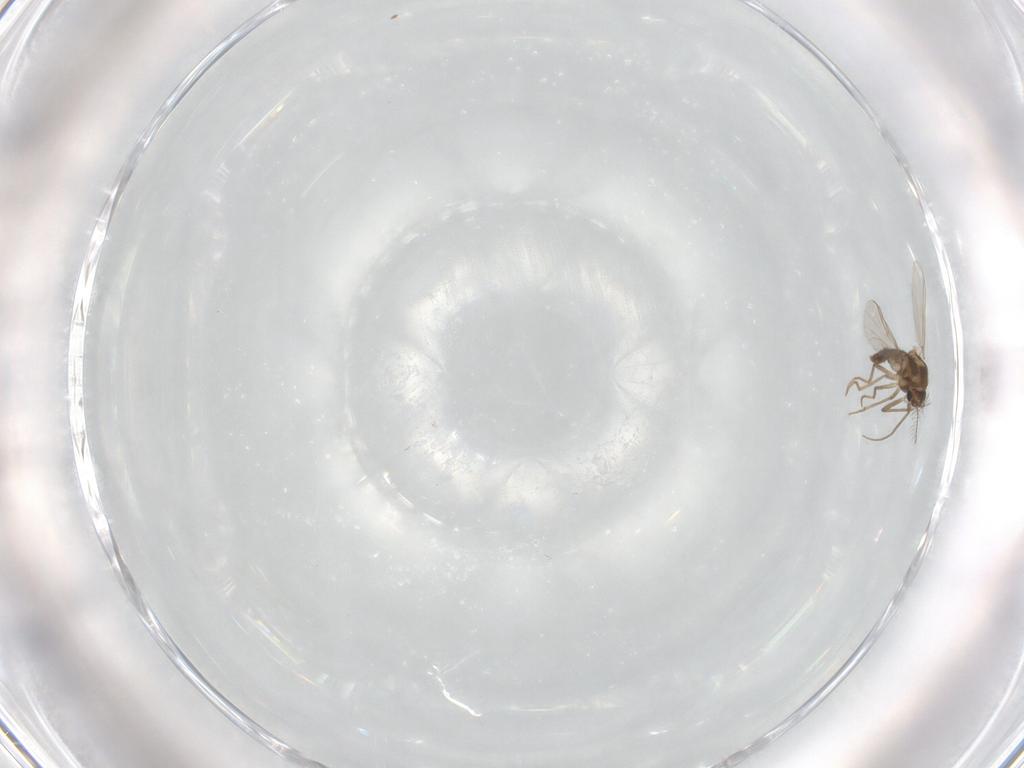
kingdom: Animalia
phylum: Arthropoda
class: Insecta
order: Diptera
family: Chironomidae
